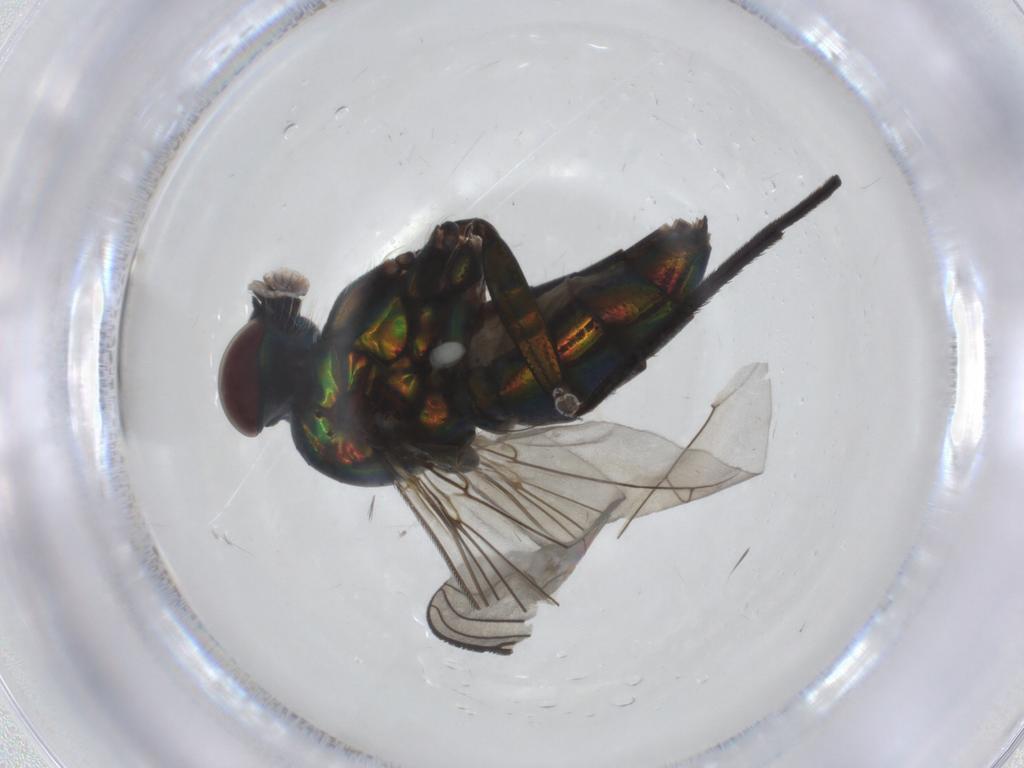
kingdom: Animalia
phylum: Arthropoda
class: Insecta
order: Diptera
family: Dolichopodidae
